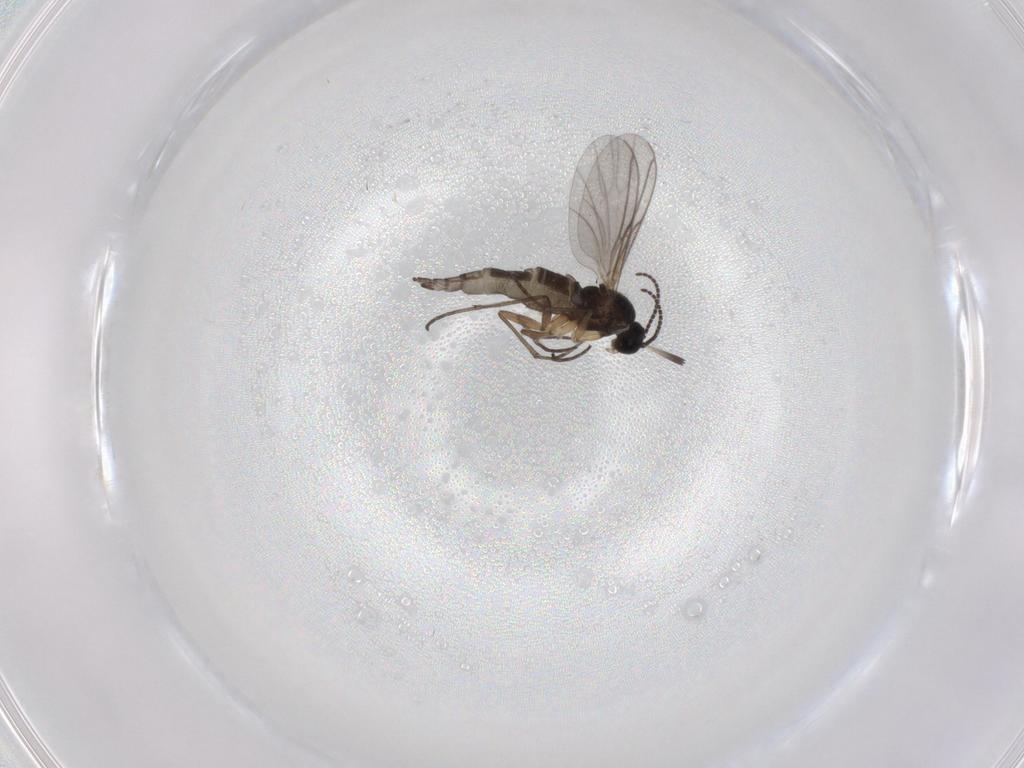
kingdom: Animalia
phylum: Arthropoda
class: Insecta
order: Diptera
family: Sciaridae
